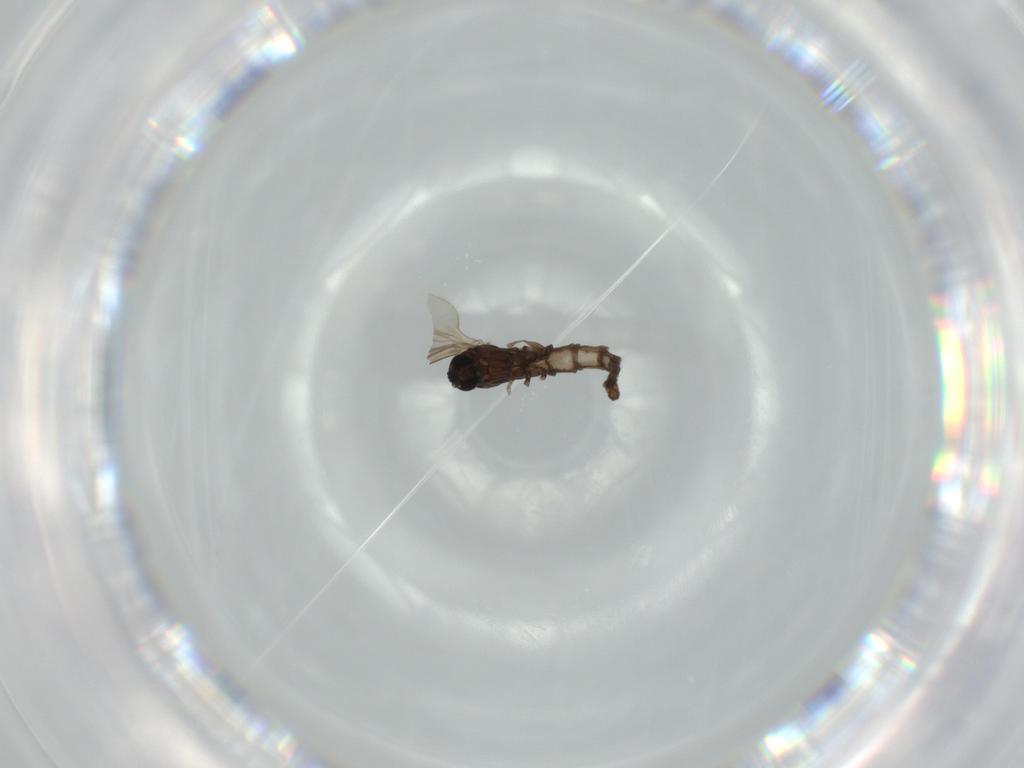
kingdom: Animalia
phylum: Arthropoda
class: Insecta
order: Diptera
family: Sciaridae
